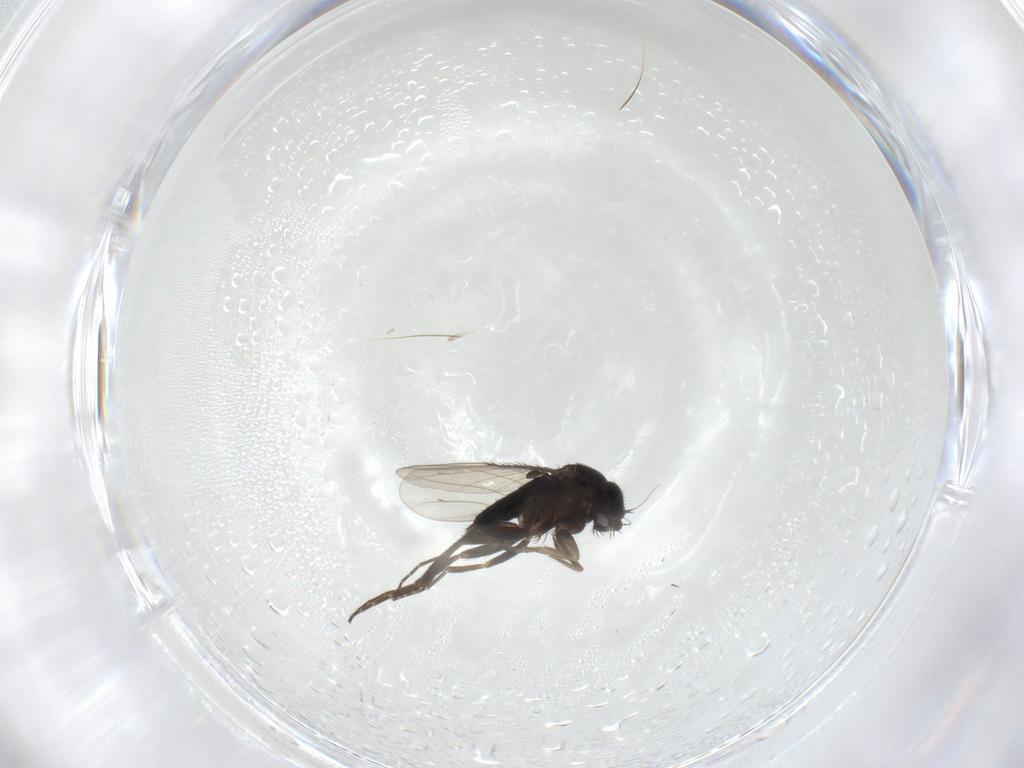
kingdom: Animalia
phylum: Arthropoda
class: Insecta
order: Diptera
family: Phoridae
